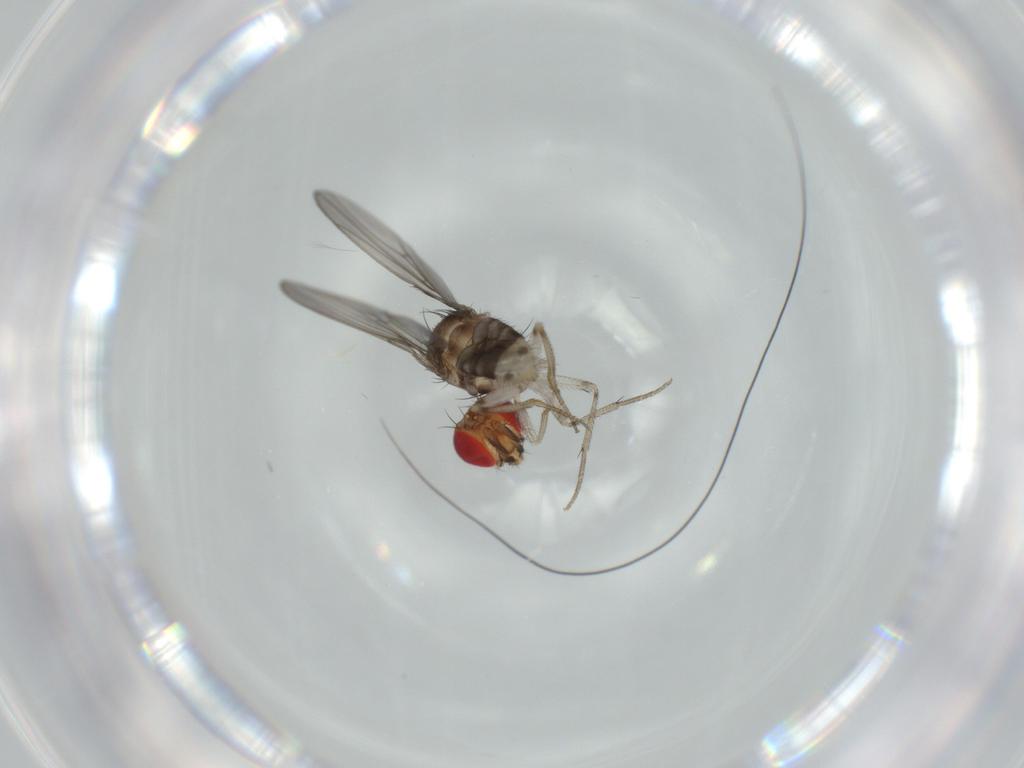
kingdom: Animalia
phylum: Arthropoda
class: Insecta
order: Diptera
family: Drosophilidae
